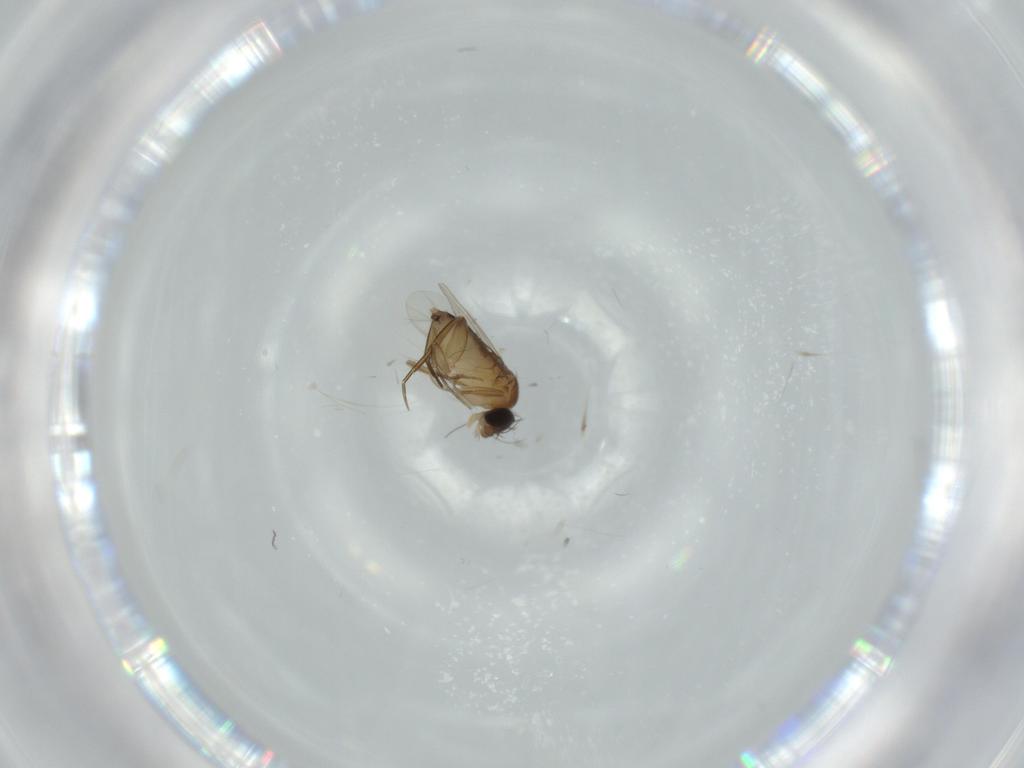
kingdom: Animalia
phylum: Arthropoda
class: Insecta
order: Diptera
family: Phoridae
